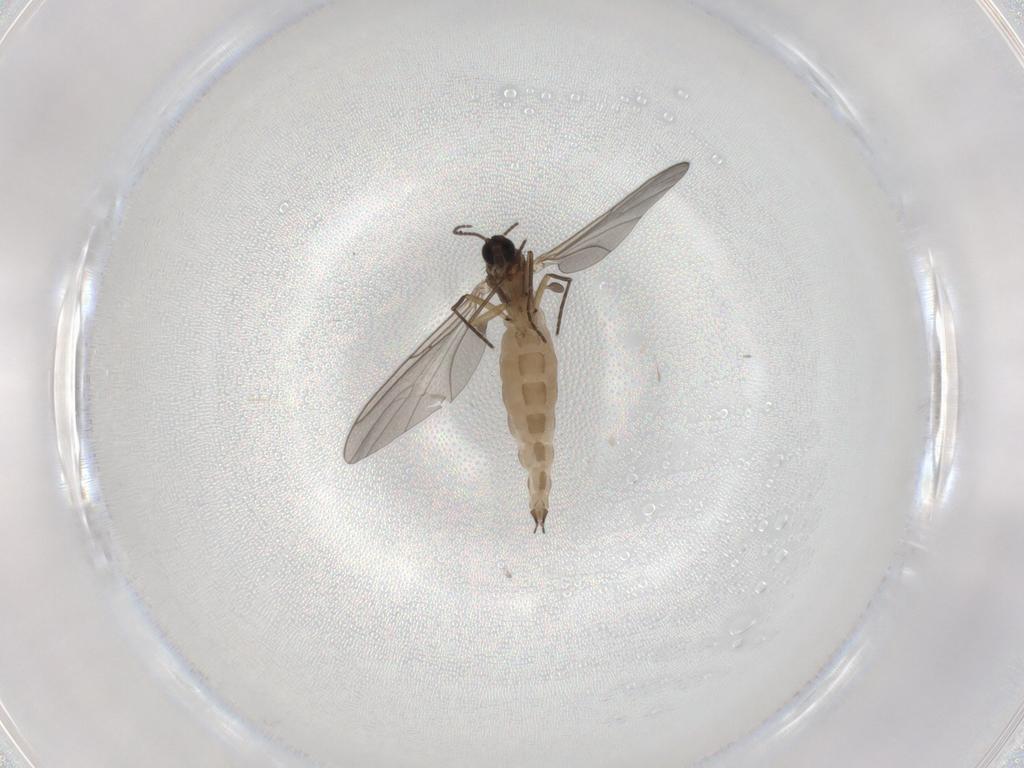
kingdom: Animalia
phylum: Arthropoda
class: Insecta
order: Diptera
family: Sciaridae
